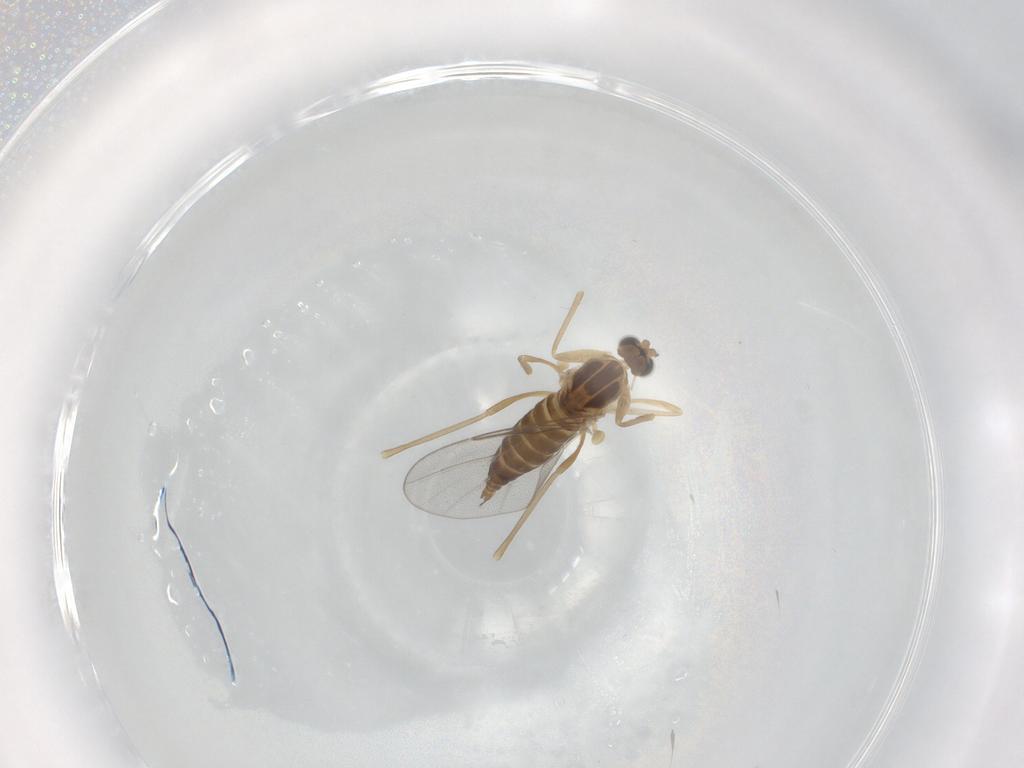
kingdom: Animalia
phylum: Arthropoda
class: Insecta
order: Diptera
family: Cecidomyiidae
